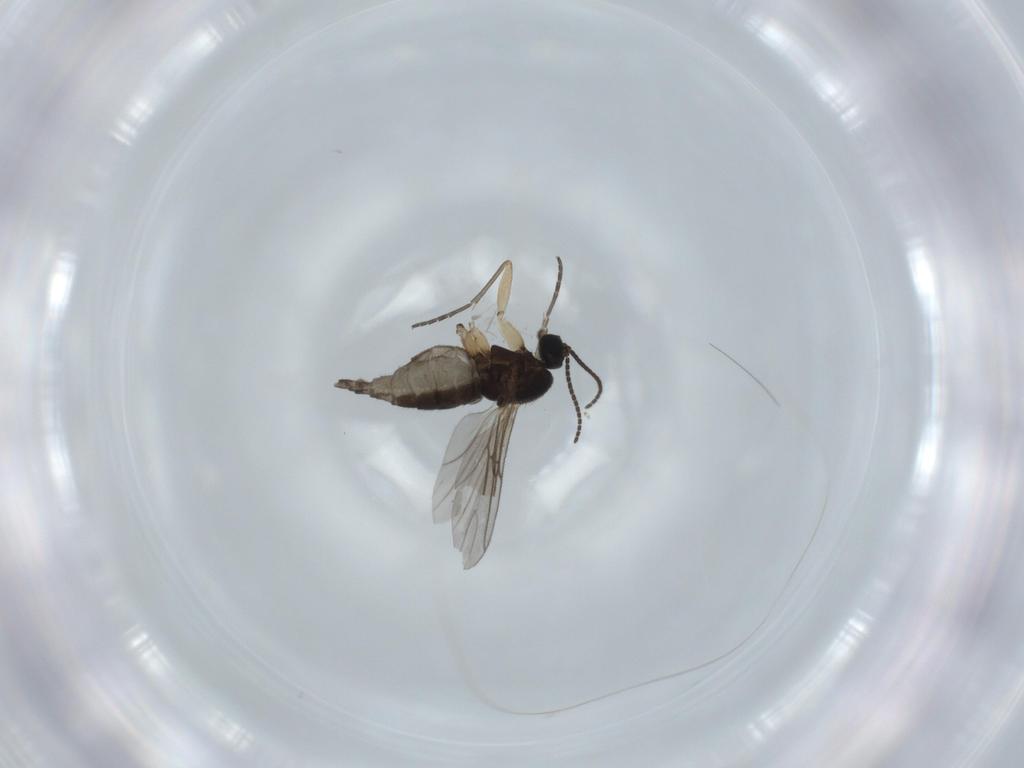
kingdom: Animalia
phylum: Arthropoda
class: Insecta
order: Diptera
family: Sciaridae
